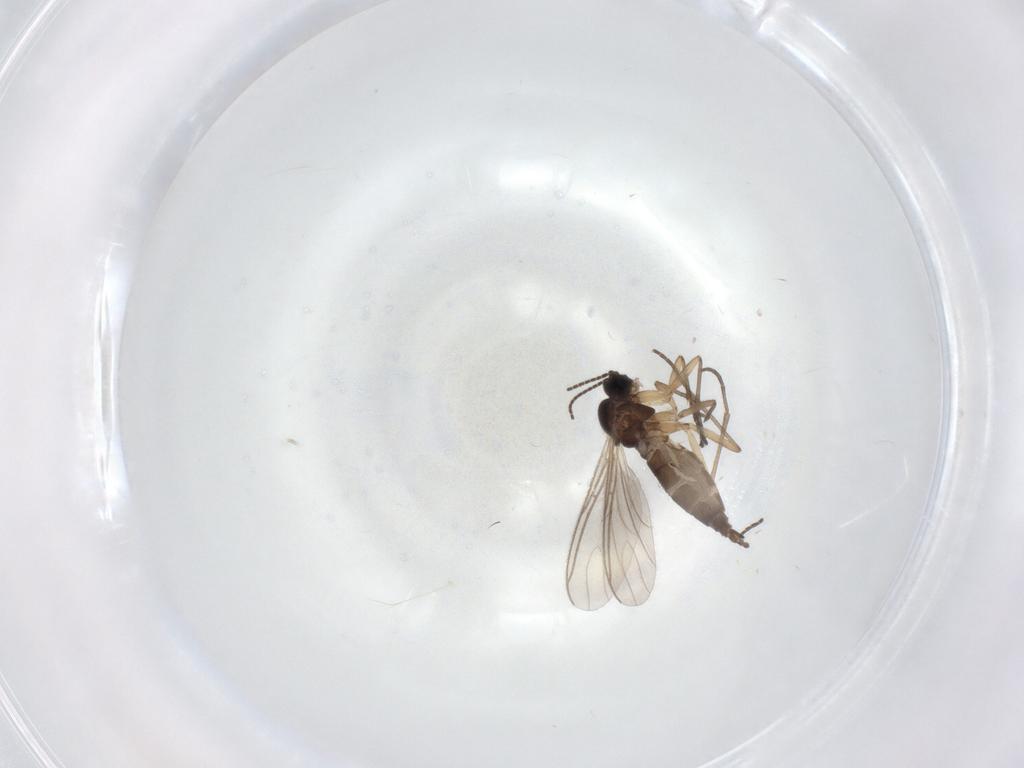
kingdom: Animalia
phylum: Arthropoda
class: Insecta
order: Diptera
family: Sciaridae
